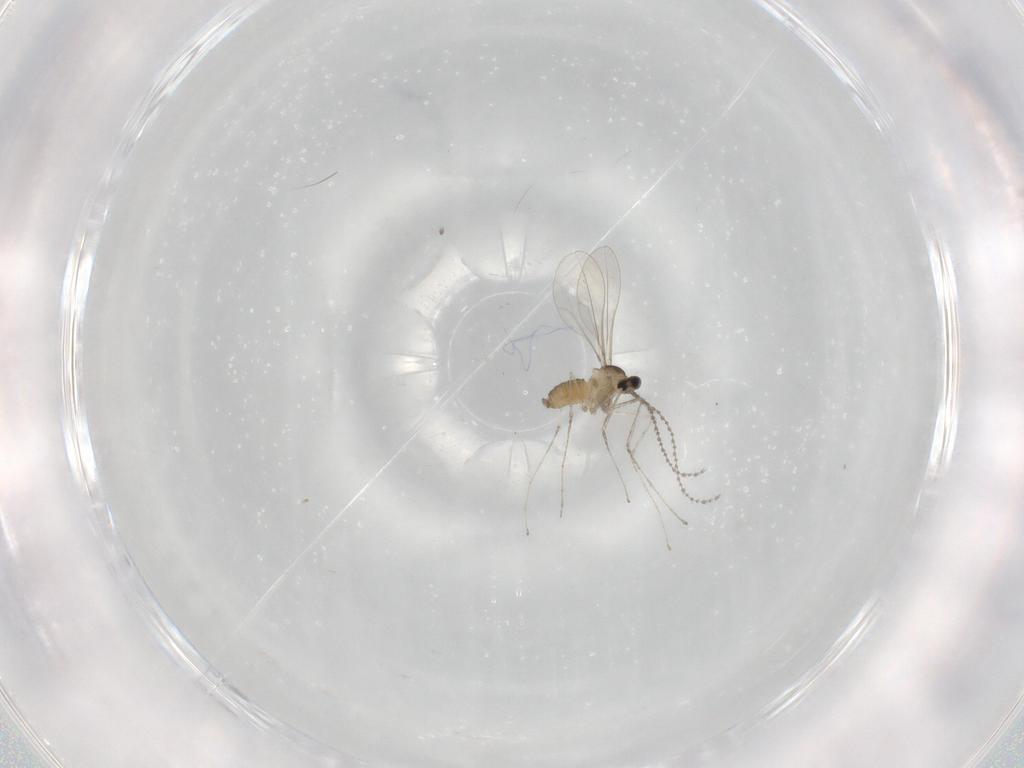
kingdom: Animalia
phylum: Arthropoda
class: Insecta
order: Diptera
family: Cecidomyiidae
